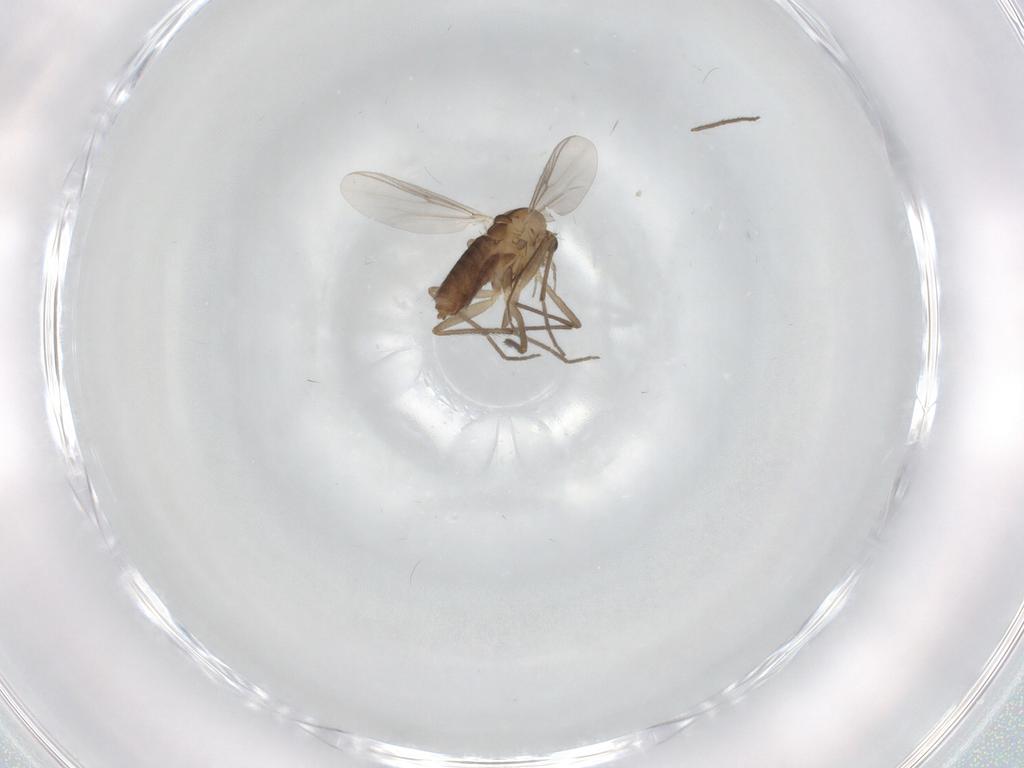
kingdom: Animalia
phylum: Arthropoda
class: Insecta
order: Diptera
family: Chironomidae
